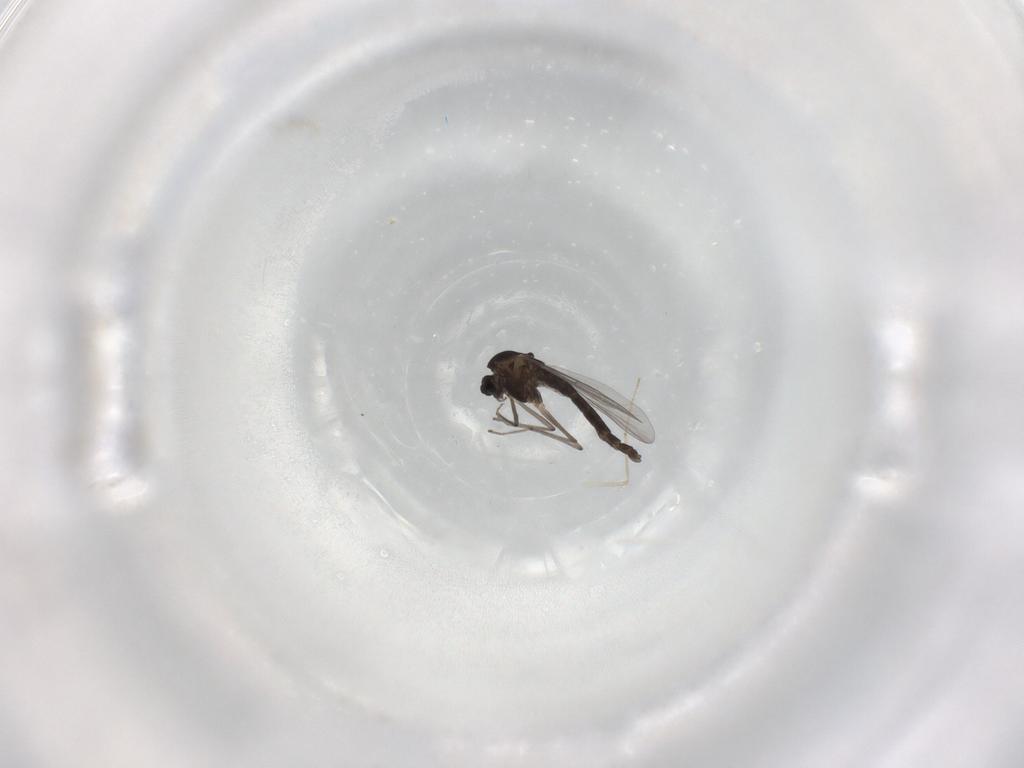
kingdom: Animalia
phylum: Arthropoda
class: Insecta
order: Diptera
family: Chironomidae
